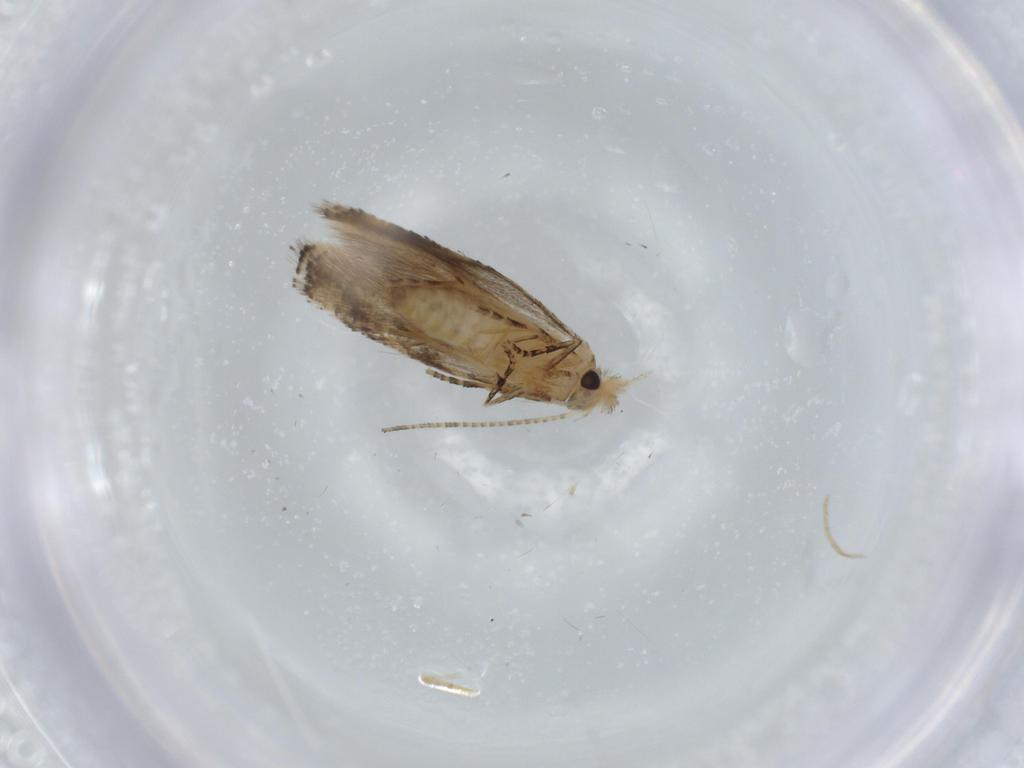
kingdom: Animalia
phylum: Arthropoda
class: Insecta
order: Lepidoptera
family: Bucculatricidae
